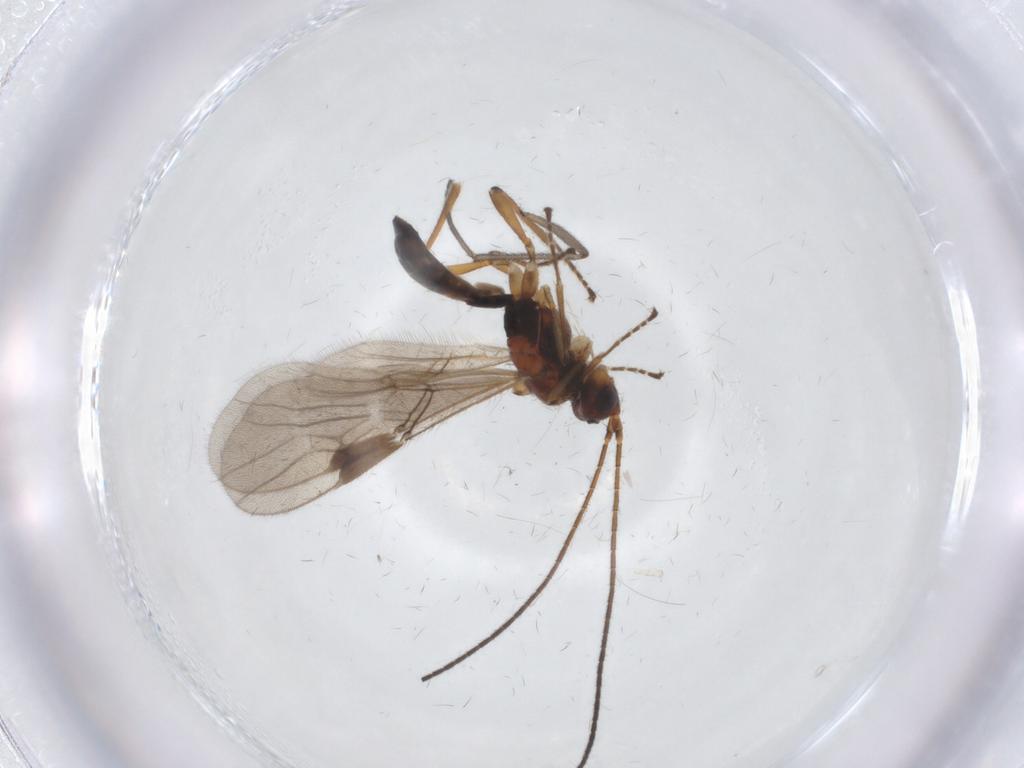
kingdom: Animalia
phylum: Arthropoda
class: Insecta
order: Hymenoptera
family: Braconidae
